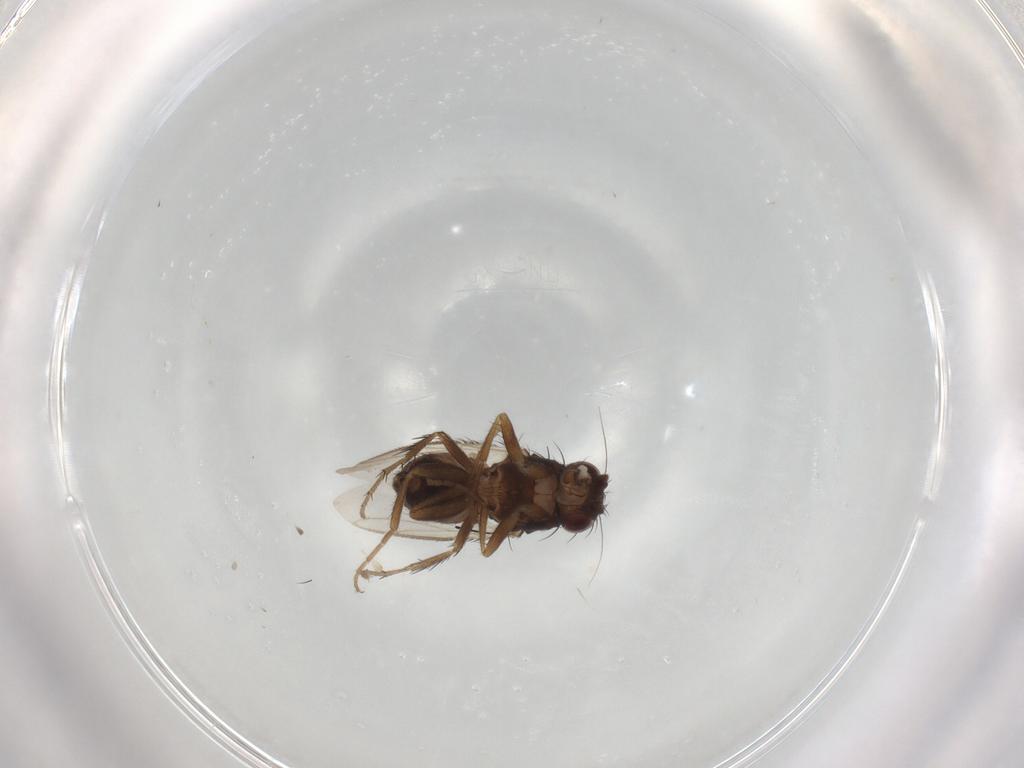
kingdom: Animalia
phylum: Arthropoda
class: Insecta
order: Diptera
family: Sphaeroceridae
